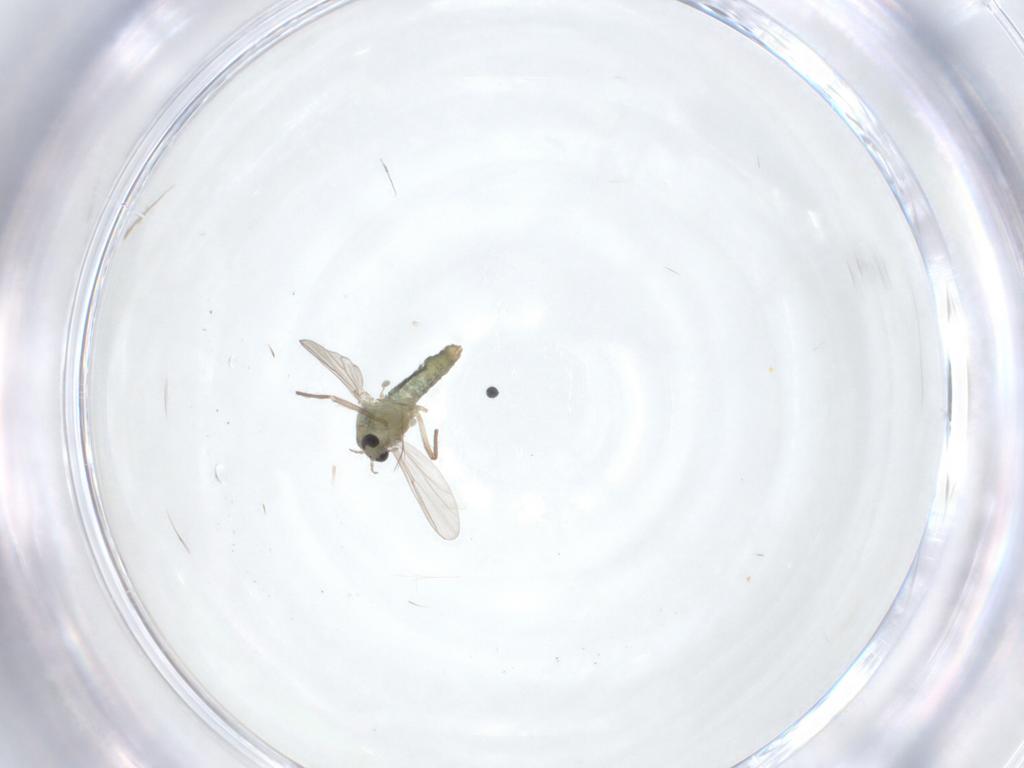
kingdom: Animalia
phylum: Arthropoda
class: Insecta
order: Diptera
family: Chironomidae
